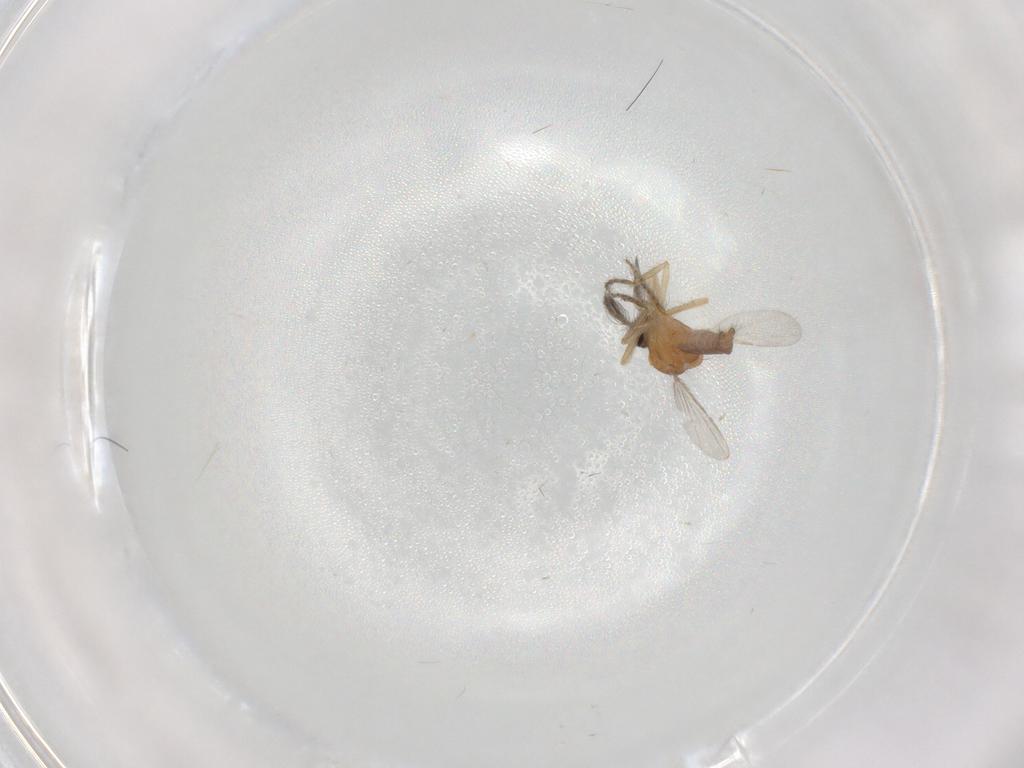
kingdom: Animalia
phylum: Arthropoda
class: Insecta
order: Diptera
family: Ceratopogonidae
